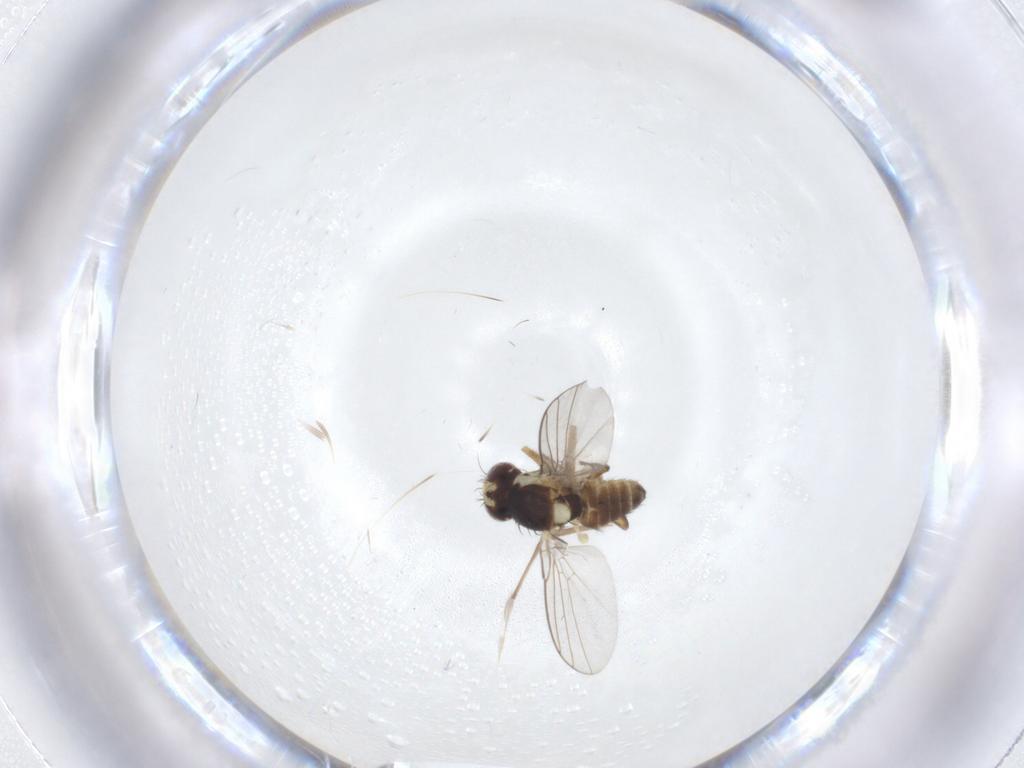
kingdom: Animalia
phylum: Arthropoda
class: Insecta
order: Diptera
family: Agromyzidae
